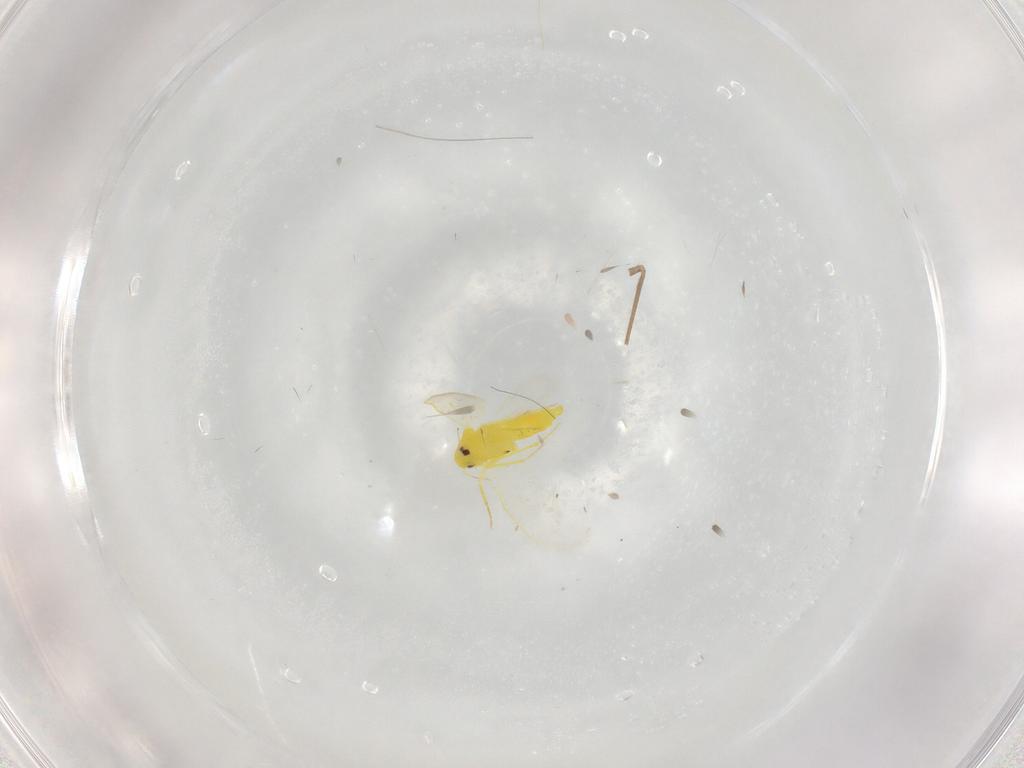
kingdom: Animalia
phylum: Arthropoda
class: Insecta
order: Hemiptera
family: Aleyrodidae
